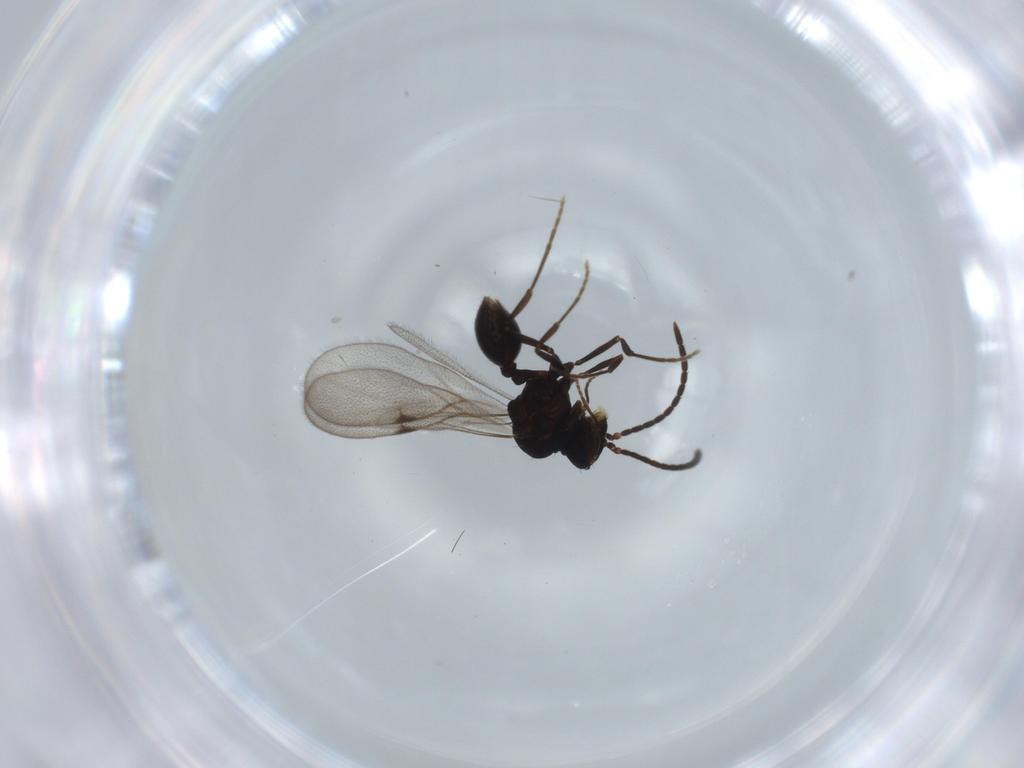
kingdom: Animalia
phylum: Arthropoda
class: Insecta
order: Hymenoptera
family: Formicidae
